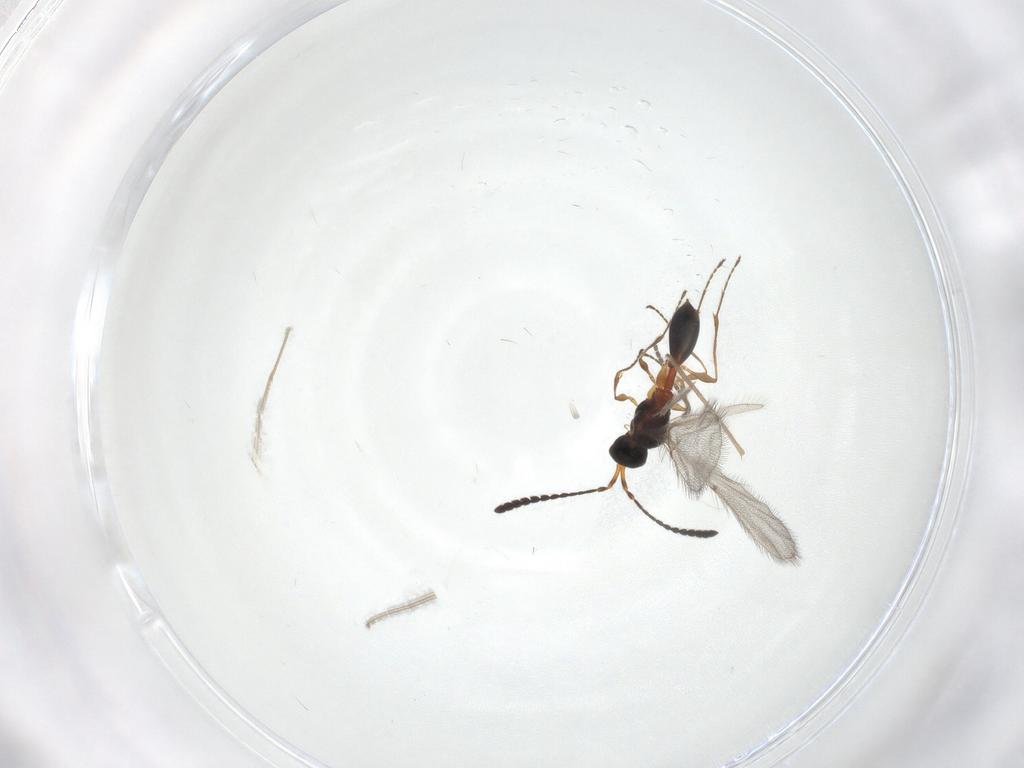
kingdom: Animalia
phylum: Arthropoda
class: Insecta
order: Hymenoptera
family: Diapriidae
